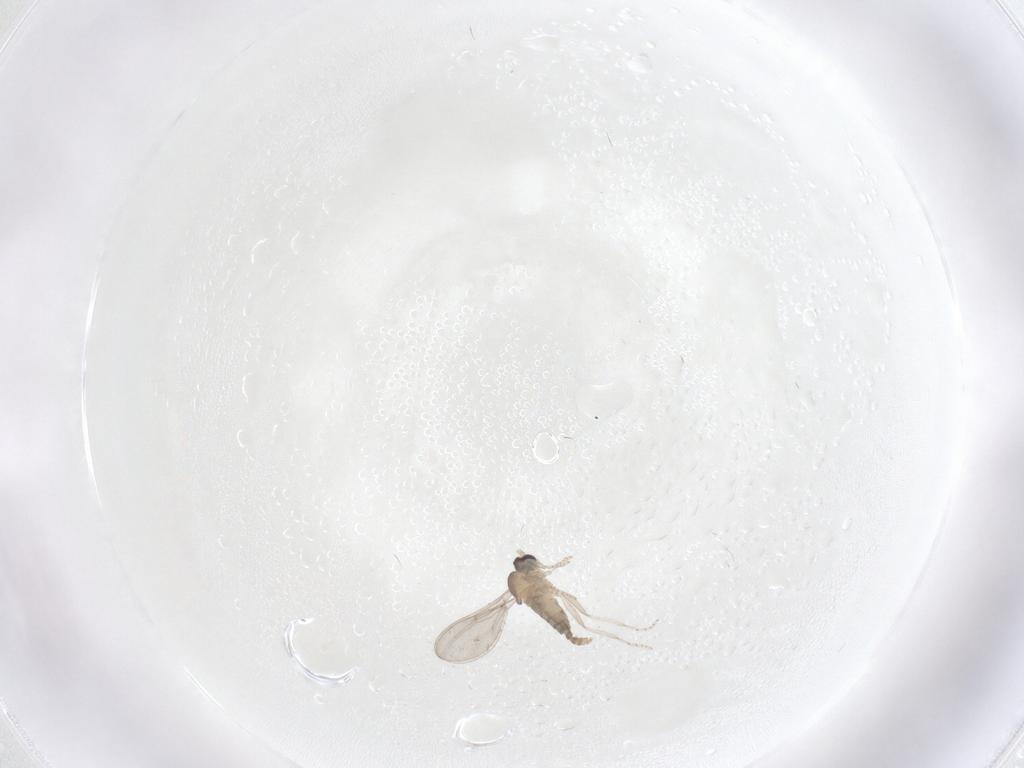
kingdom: Animalia
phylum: Arthropoda
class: Insecta
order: Diptera
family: Cecidomyiidae
